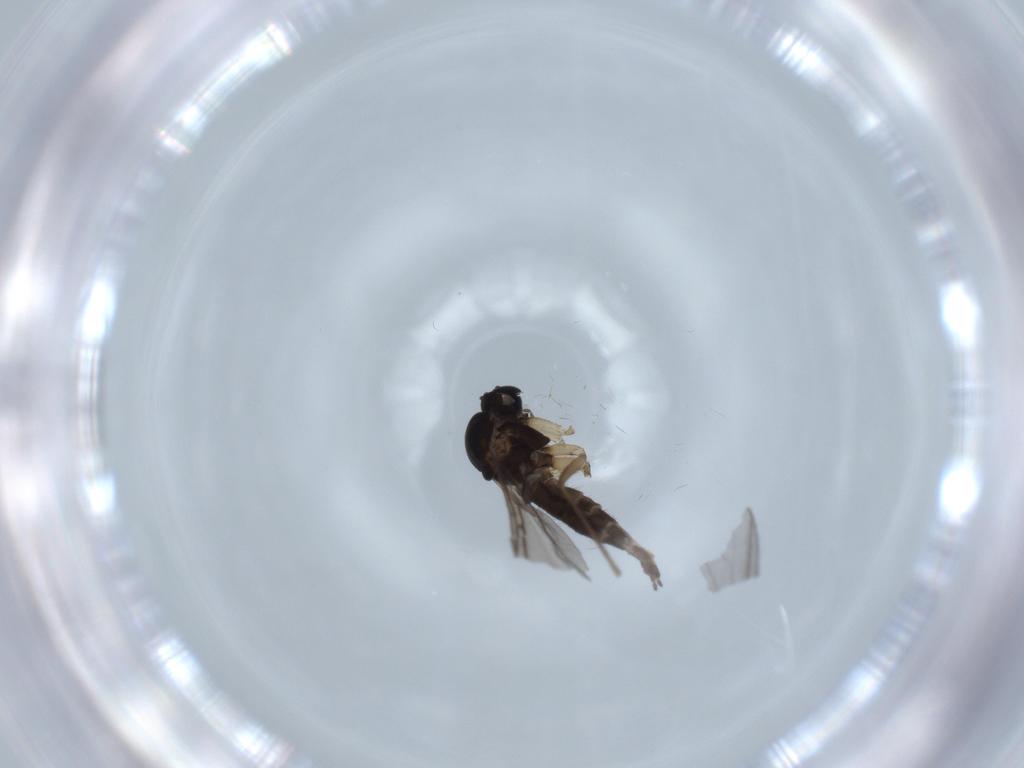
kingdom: Animalia
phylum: Arthropoda
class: Insecta
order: Diptera
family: Sciaridae
